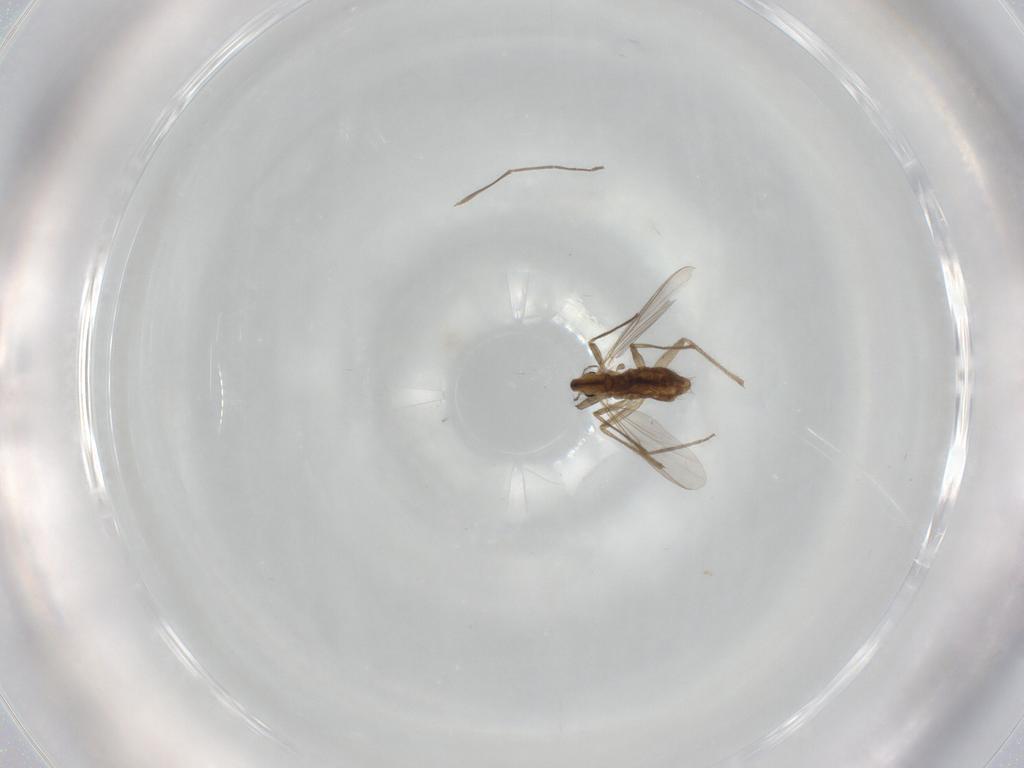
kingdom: Animalia
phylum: Arthropoda
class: Insecta
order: Diptera
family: Chironomidae
